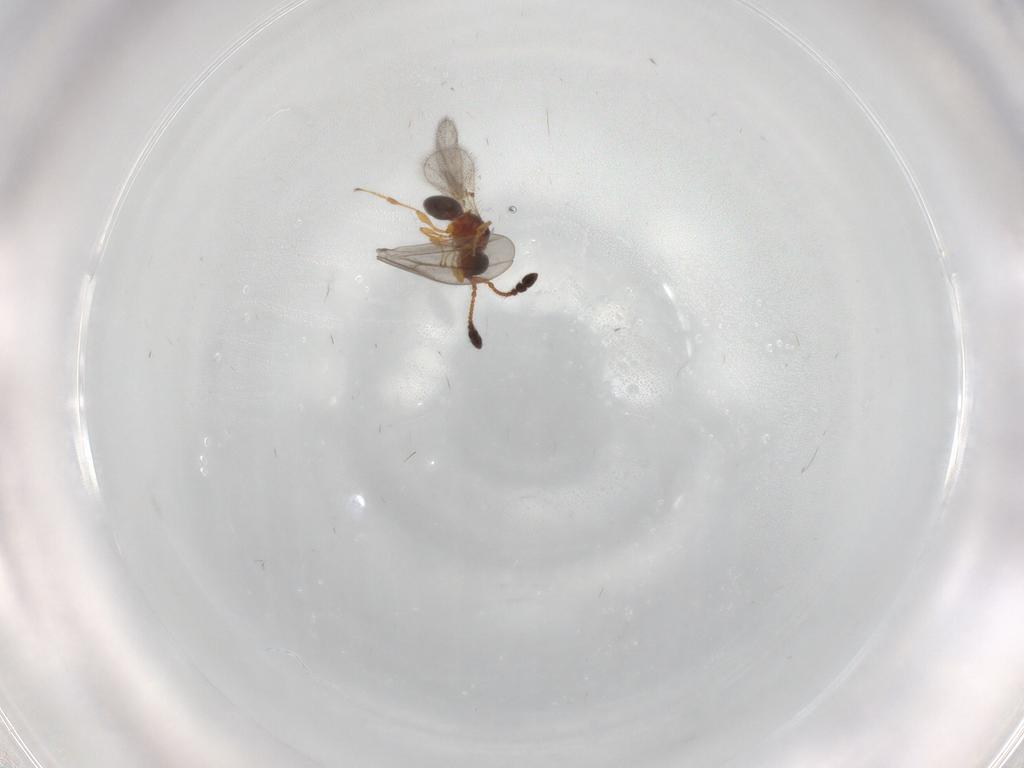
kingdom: Animalia
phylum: Arthropoda
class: Insecta
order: Hymenoptera
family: Diapriidae
